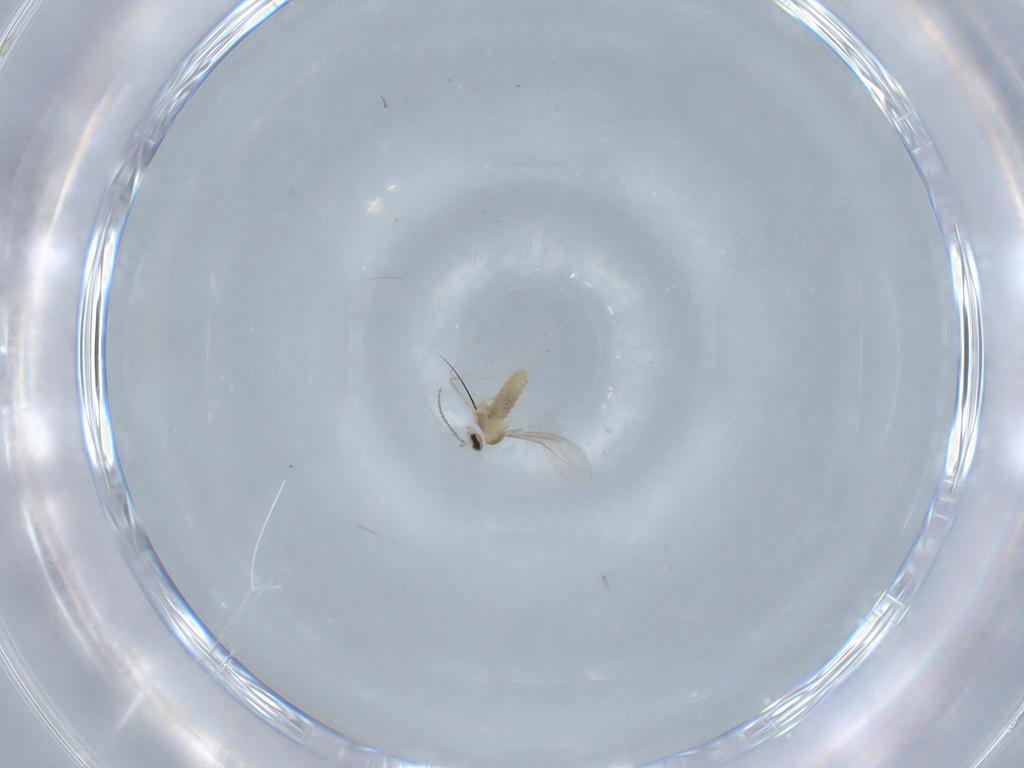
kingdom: Animalia
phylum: Arthropoda
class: Insecta
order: Diptera
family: Cecidomyiidae
